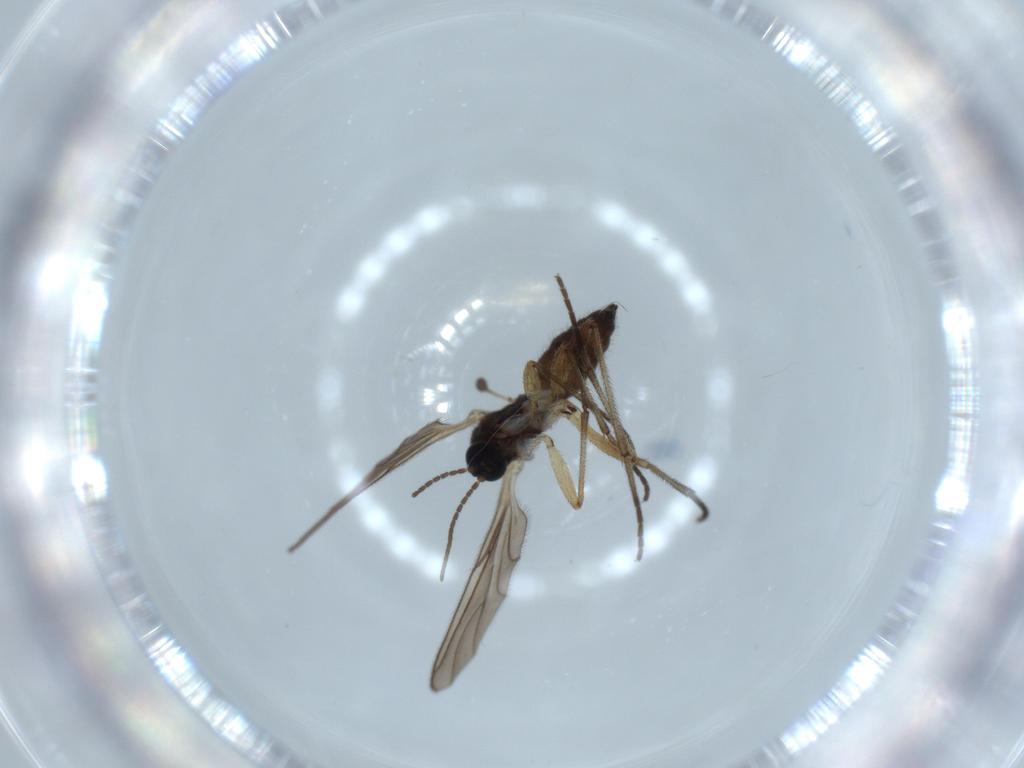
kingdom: Animalia
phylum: Arthropoda
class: Insecta
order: Diptera
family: Sciaridae
